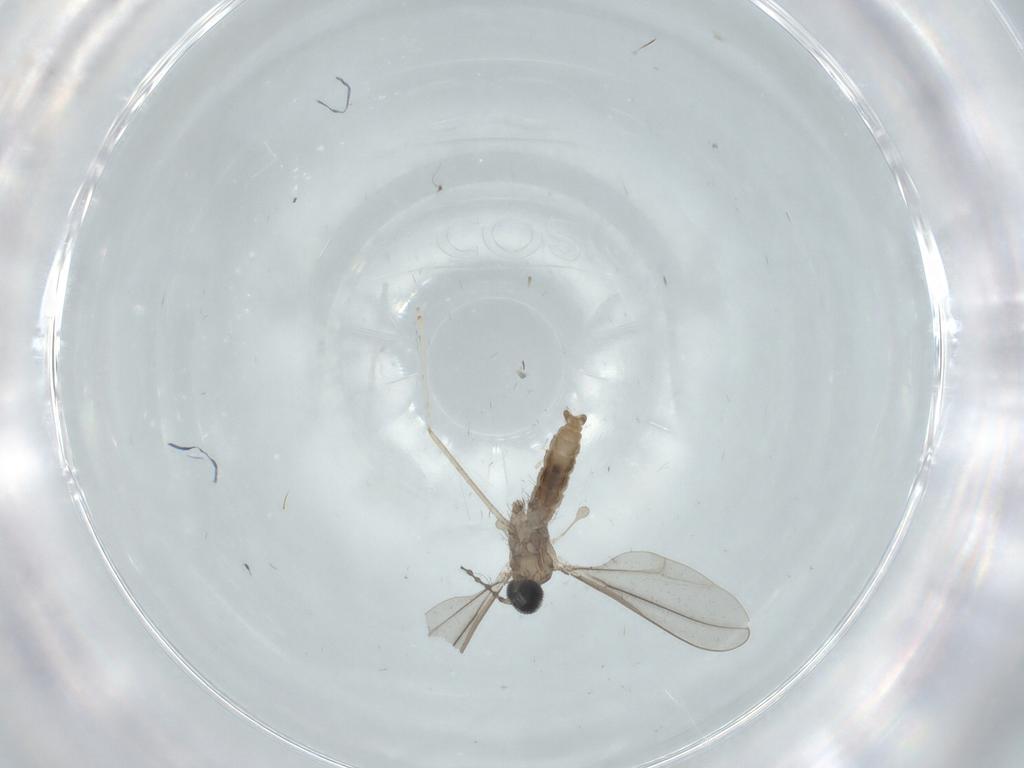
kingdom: Animalia
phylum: Arthropoda
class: Insecta
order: Diptera
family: Cecidomyiidae
